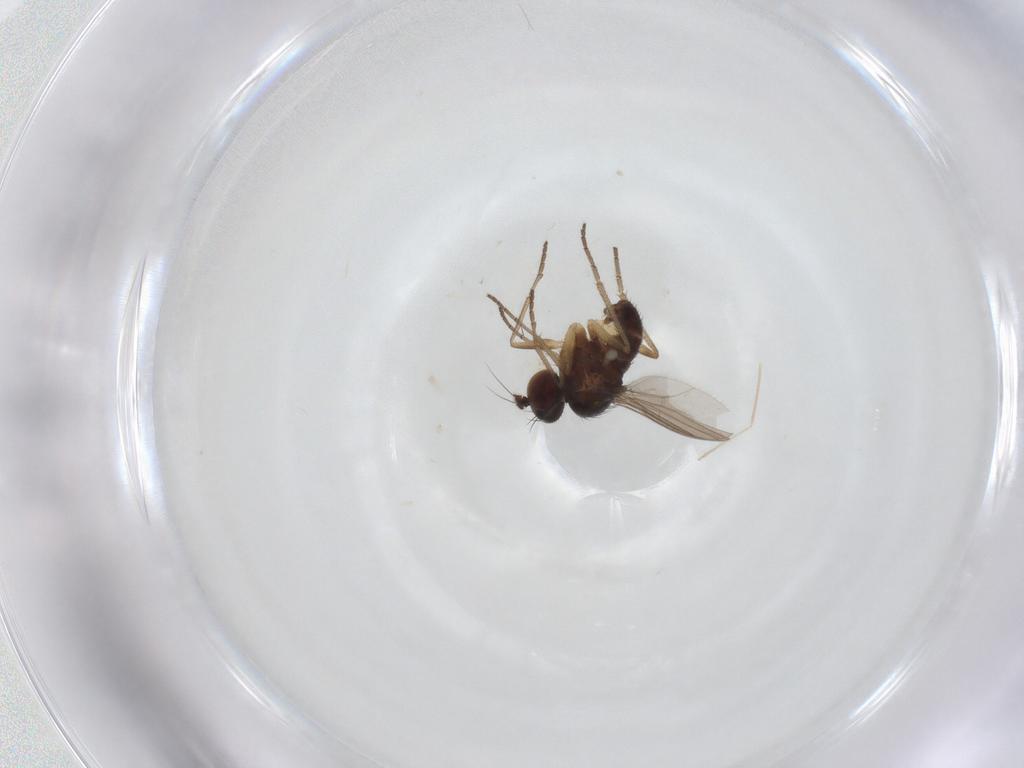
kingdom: Animalia
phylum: Arthropoda
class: Insecta
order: Diptera
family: Dolichopodidae
